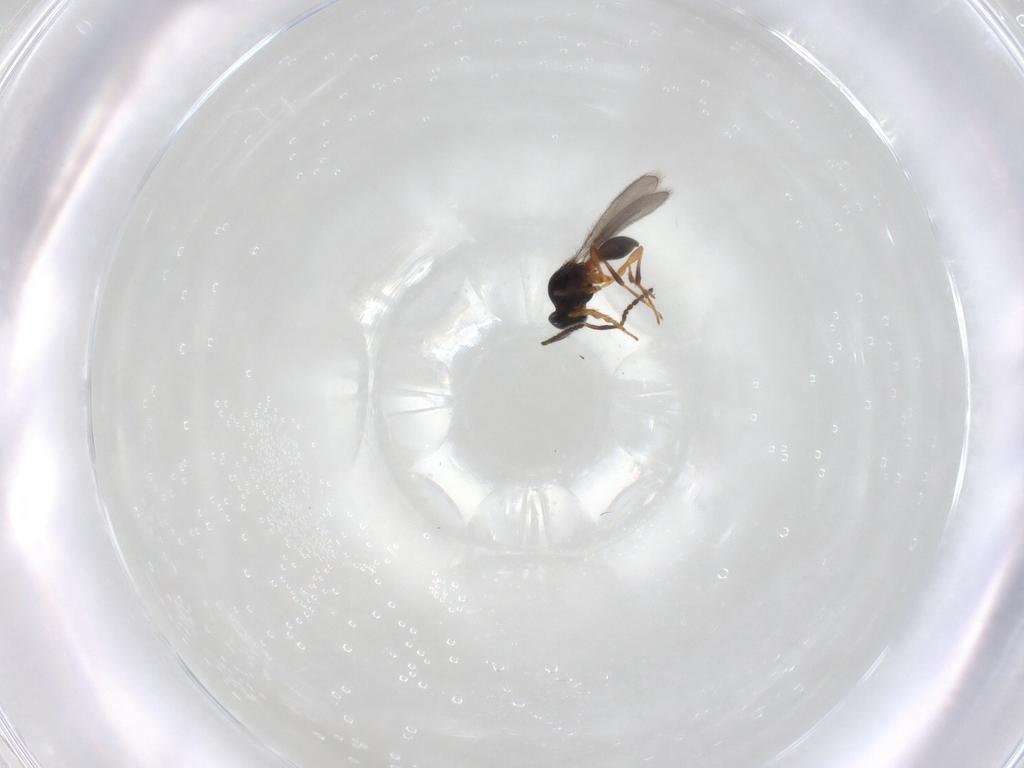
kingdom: Animalia
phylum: Arthropoda
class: Insecta
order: Hymenoptera
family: Platygastridae
